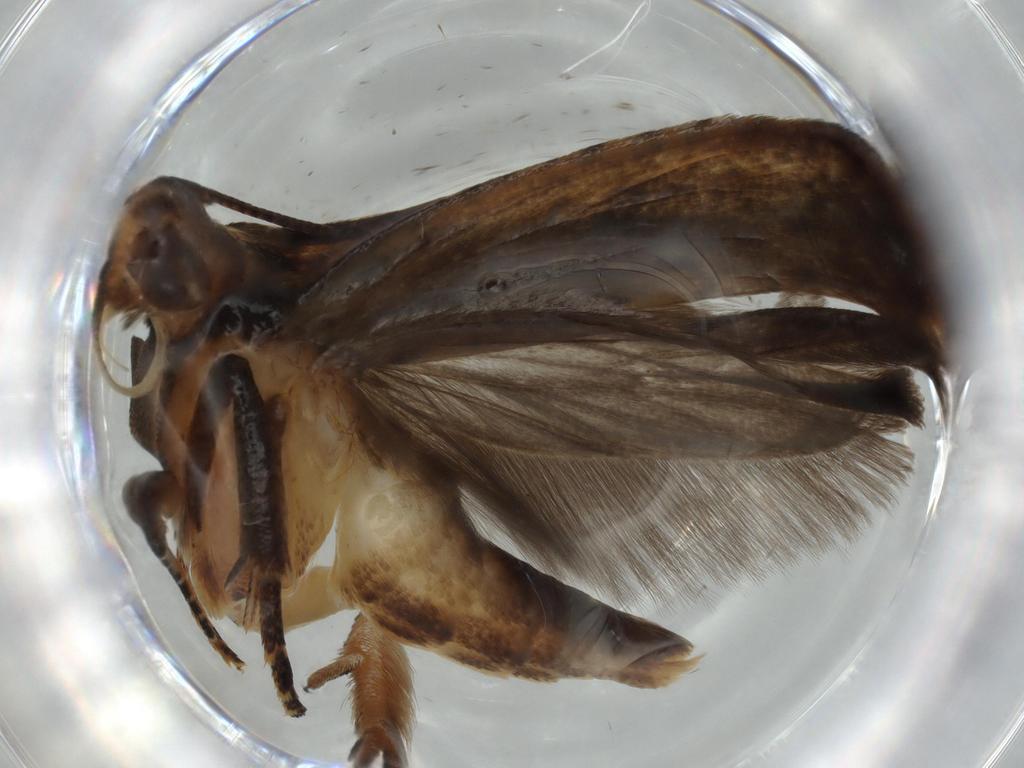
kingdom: Animalia
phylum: Arthropoda
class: Insecta
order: Lepidoptera
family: Gelechiidae
